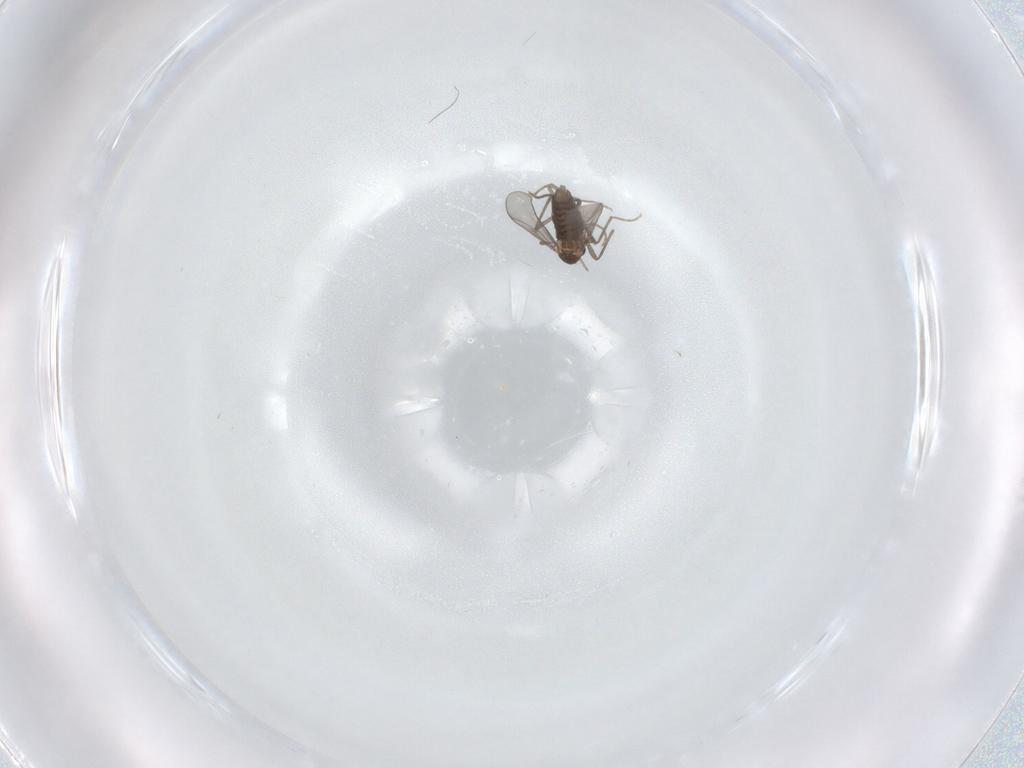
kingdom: Animalia
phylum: Arthropoda
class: Insecta
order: Diptera
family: Chironomidae
